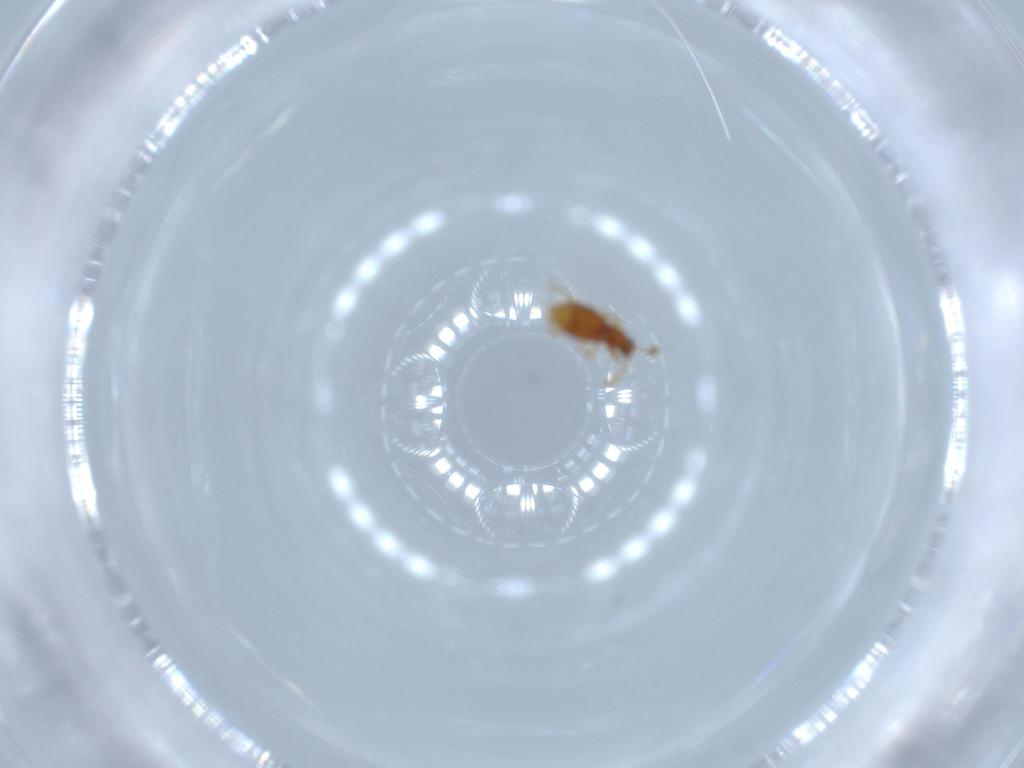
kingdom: Animalia
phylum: Arthropoda
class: Insecta
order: Coleoptera
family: Staphylinidae
